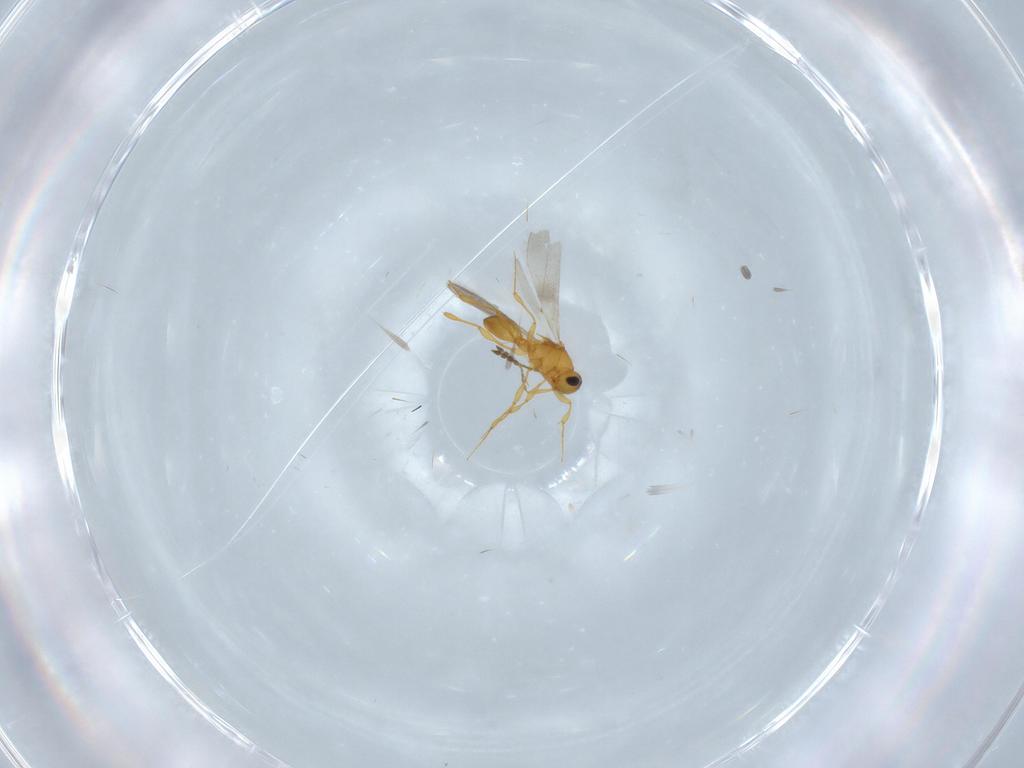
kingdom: Animalia
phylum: Arthropoda
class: Insecta
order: Hymenoptera
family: Platygastridae
